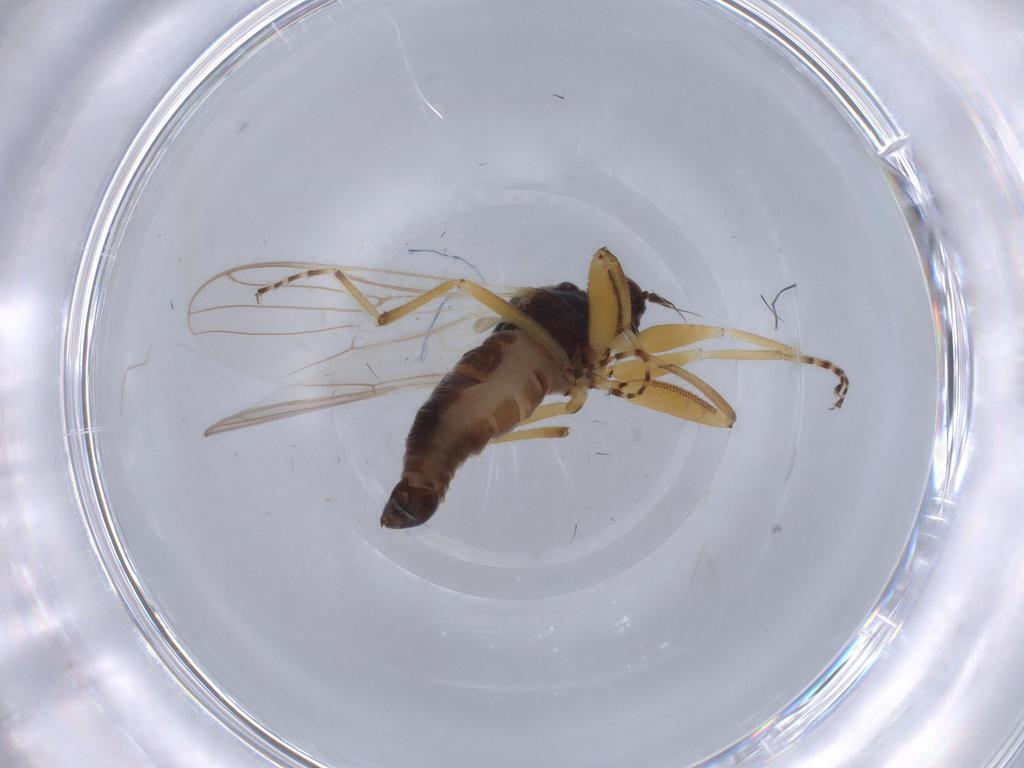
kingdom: Animalia
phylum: Arthropoda
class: Insecta
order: Diptera
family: Hybotidae
